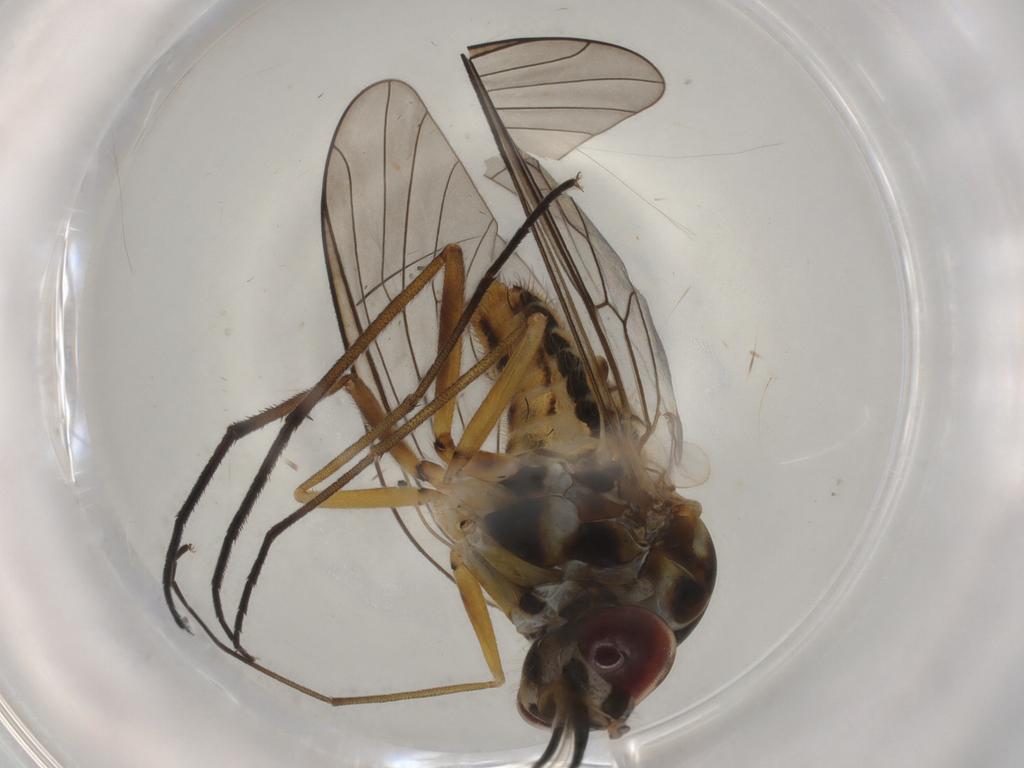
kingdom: Animalia
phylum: Arthropoda
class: Insecta
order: Diptera
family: Bombyliidae
